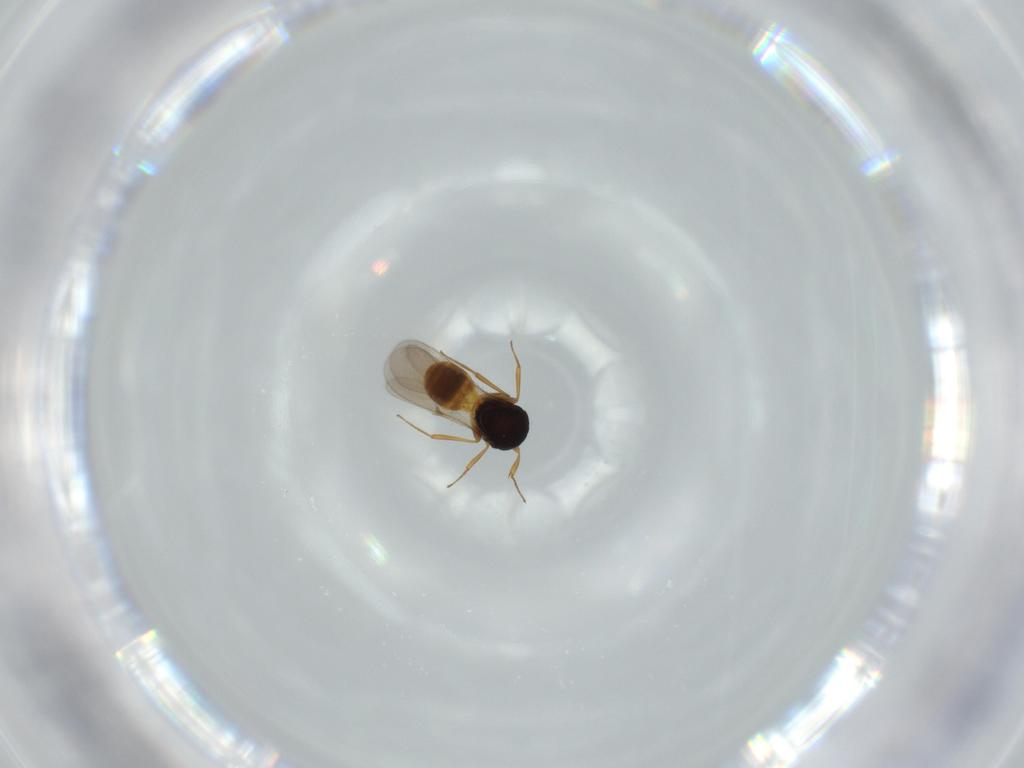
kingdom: Animalia
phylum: Arthropoda
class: Insecta
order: Hymenoptera
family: Scelionidae
